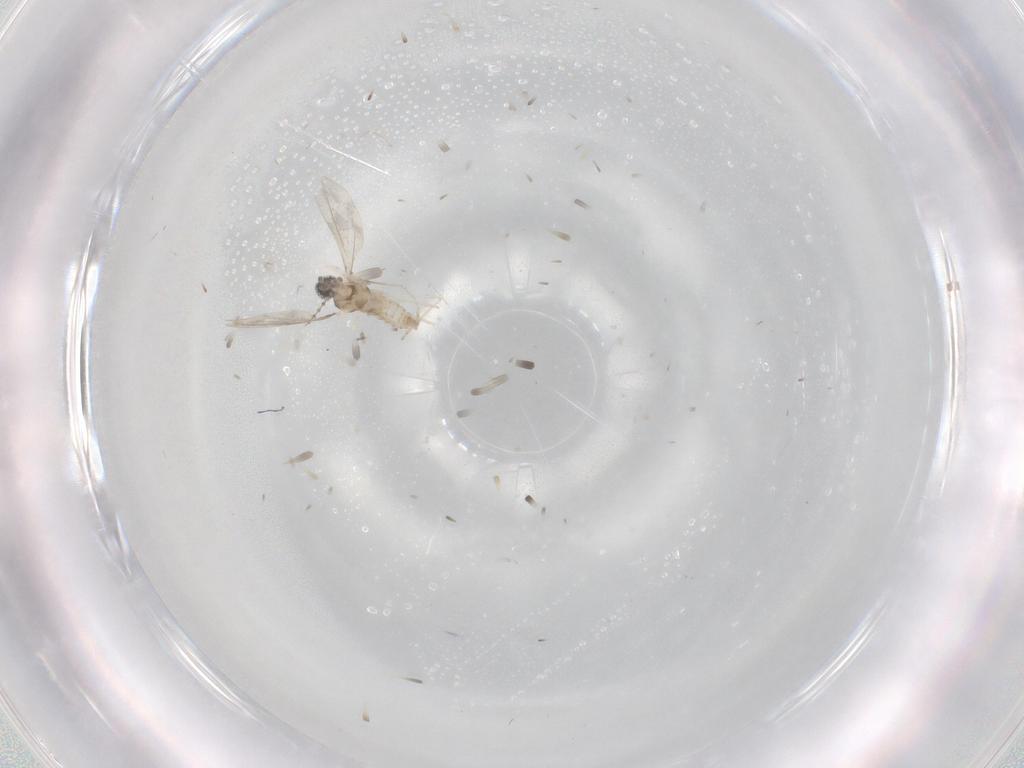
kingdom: Animalia
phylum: Arthropoda
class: Insecta
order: Diptera
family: Cecidomyiidae
